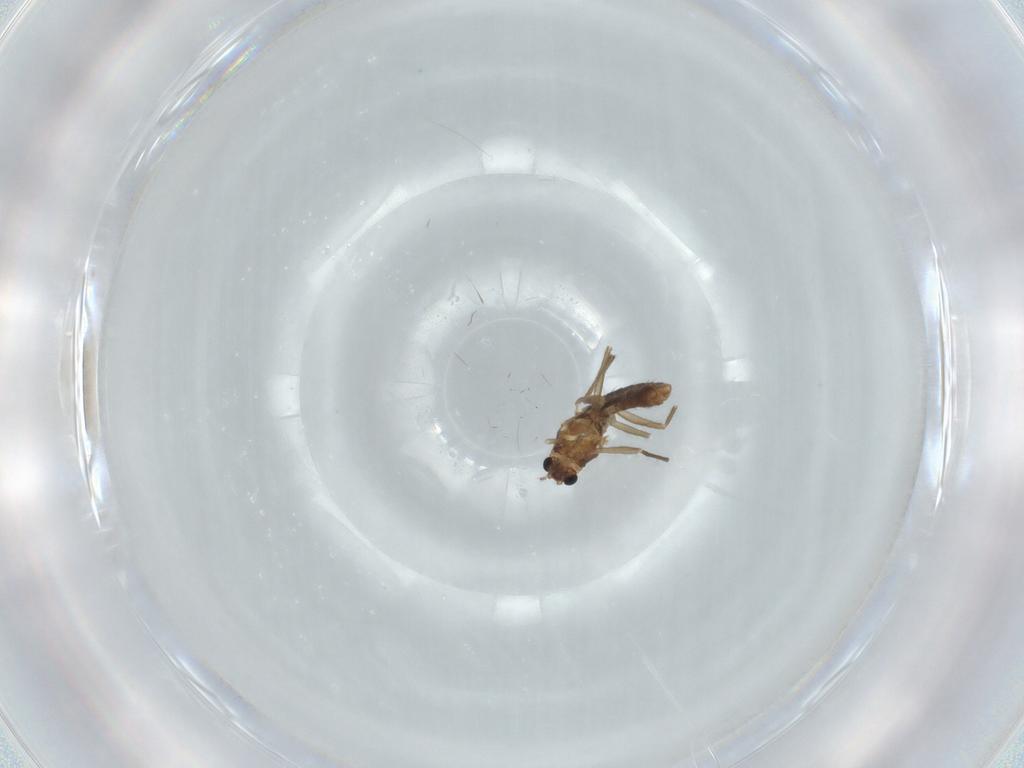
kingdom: Animalia
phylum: Arthropoda
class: Insecta
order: Diptera
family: Chironomidae
